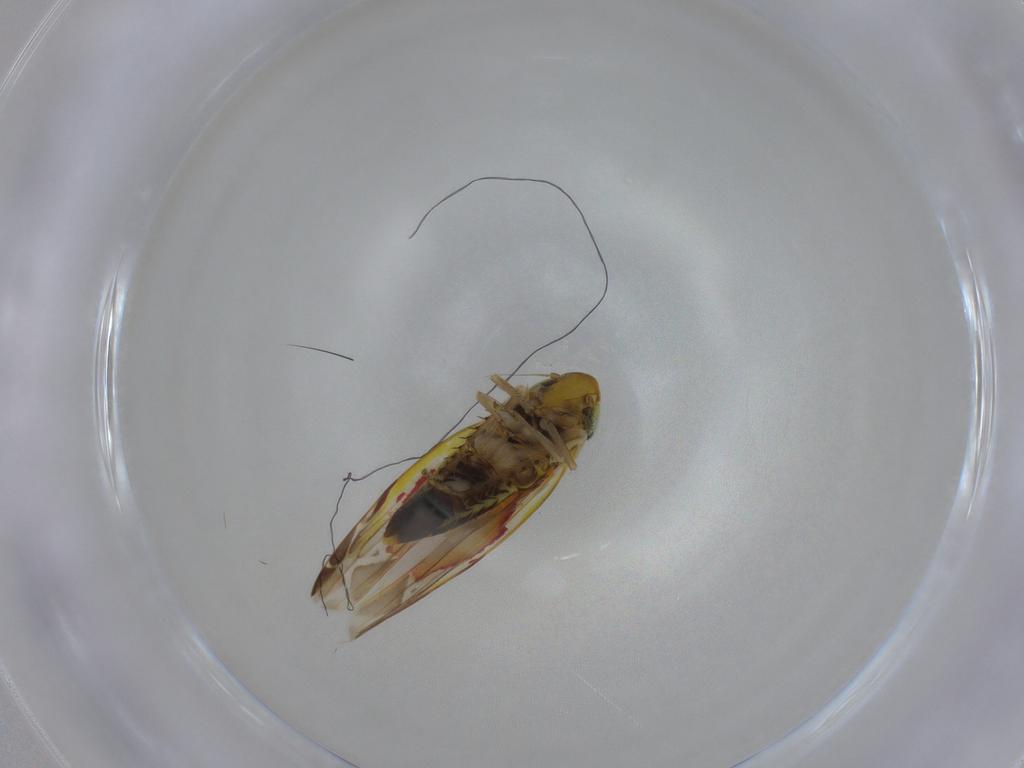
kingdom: Animalia
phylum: Arthropoda
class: Insecta
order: Hemiptera
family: Cicadellidae
